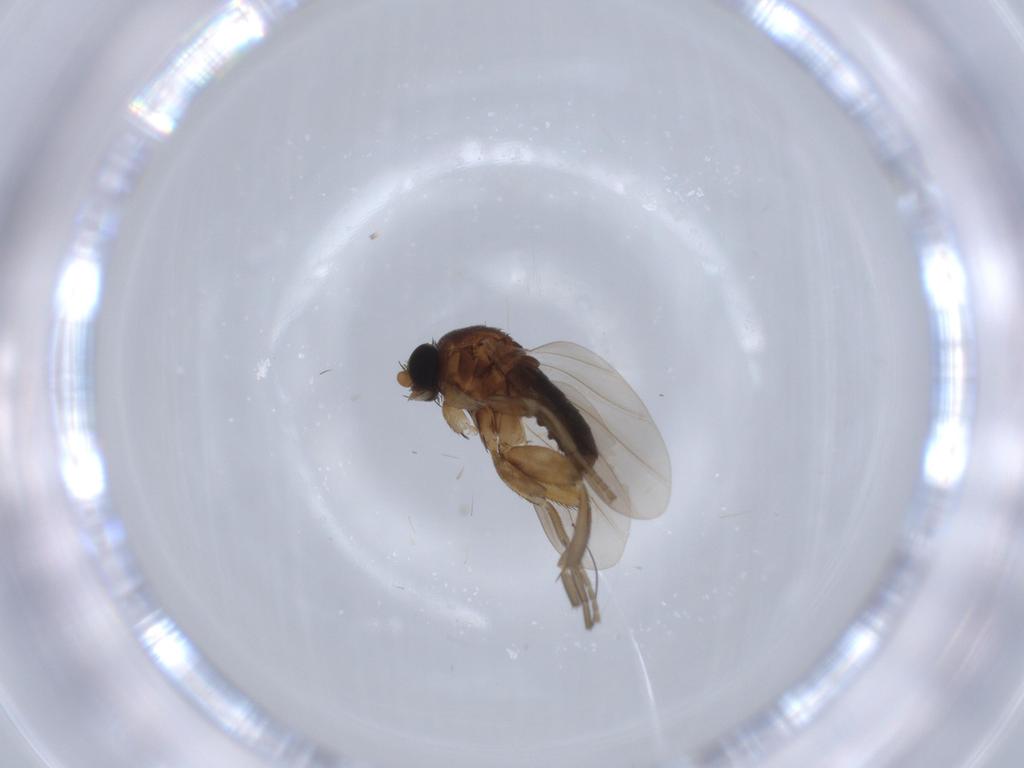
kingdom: Animalia
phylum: Arthropoda
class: Insecta
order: Diptera
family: Phoridae
